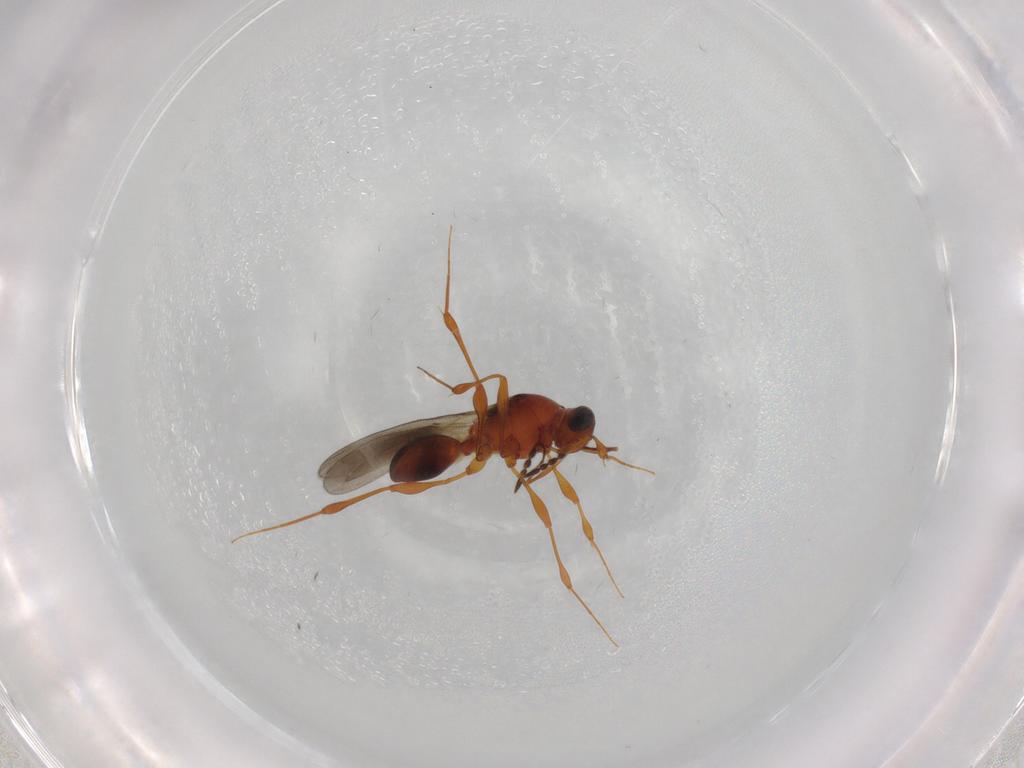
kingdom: Animalia
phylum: Arthropoda
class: Insecta
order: Hymenoptera
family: Platygastridae
